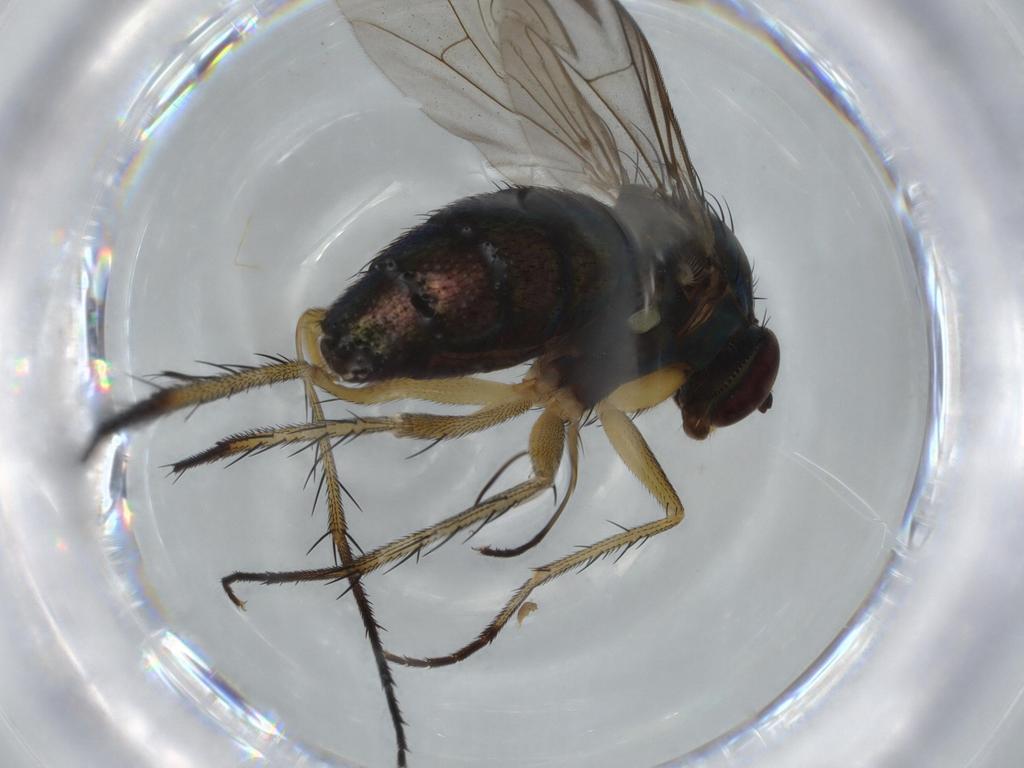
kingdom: Animalia
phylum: Arthropoda
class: Insecta
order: Diptera
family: Dolichopodidae
